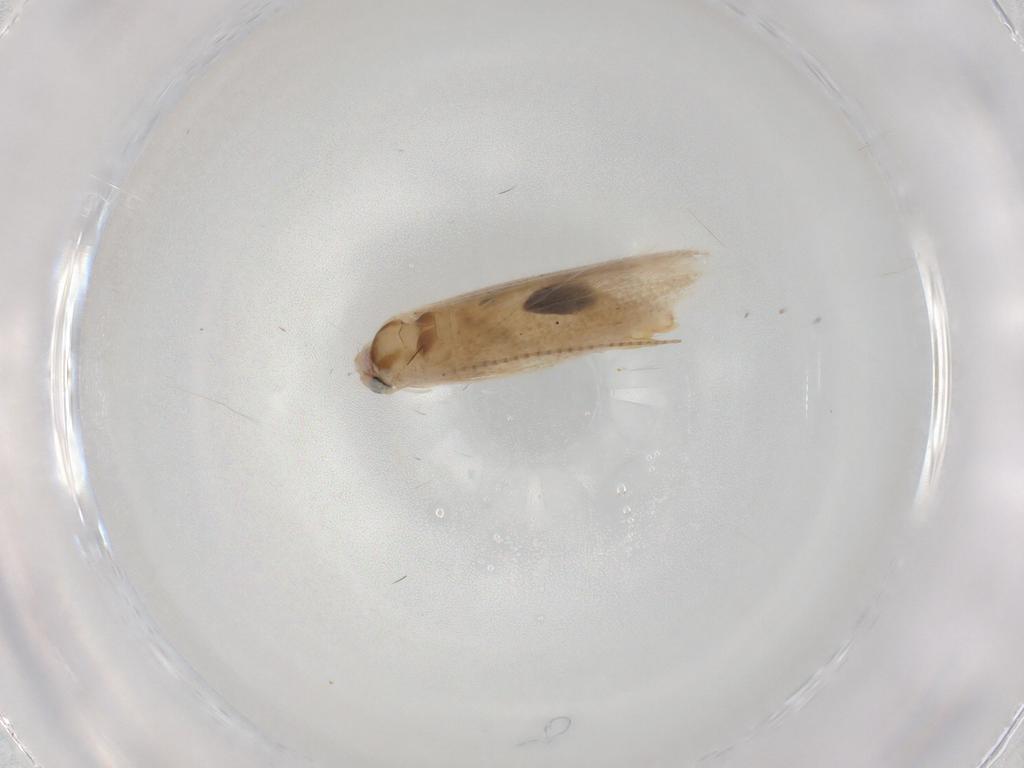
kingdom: Animalia
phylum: Arthropoda
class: Insecta
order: Lepidoptera
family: Bucculatricidae
